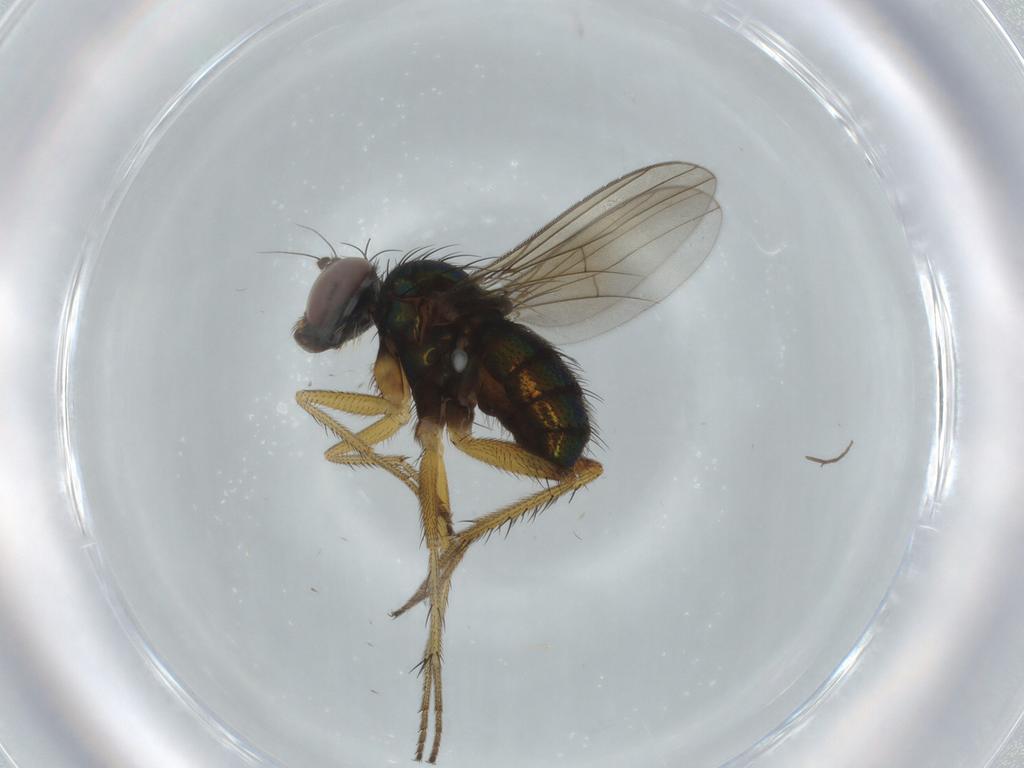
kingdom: Animalia
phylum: Arthropoda
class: Insecta
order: Diptera
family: Dolichopodidae
